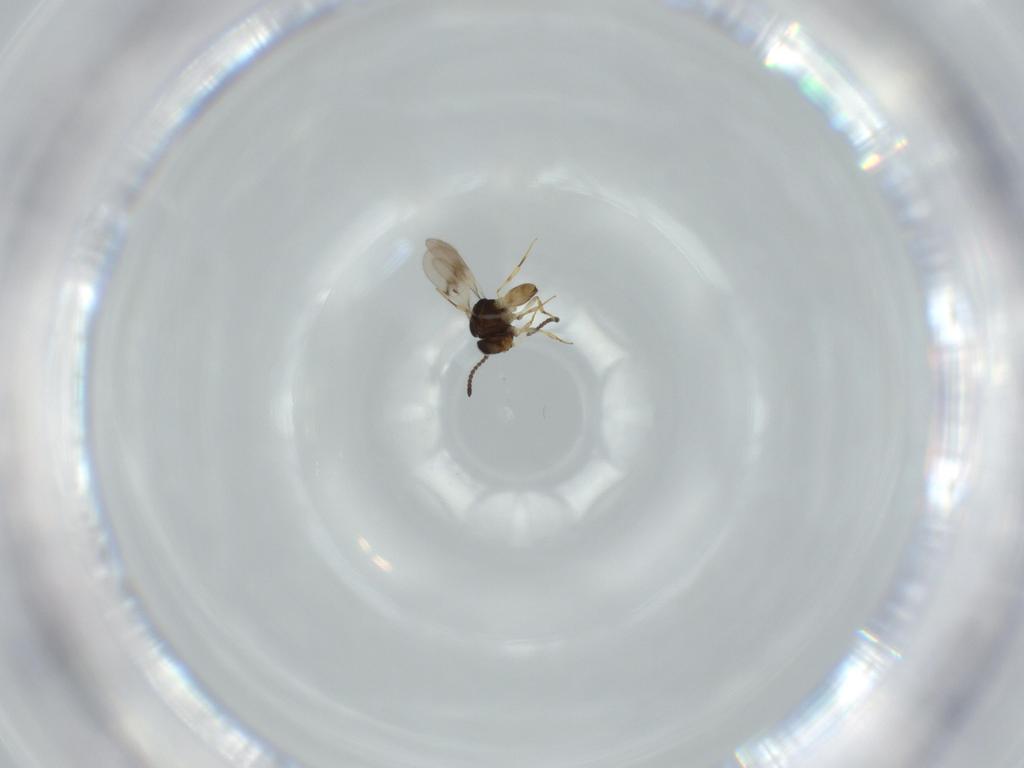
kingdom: Animalia
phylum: Arthropoda
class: Insecta
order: Hymenoptera
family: Scelionidae
